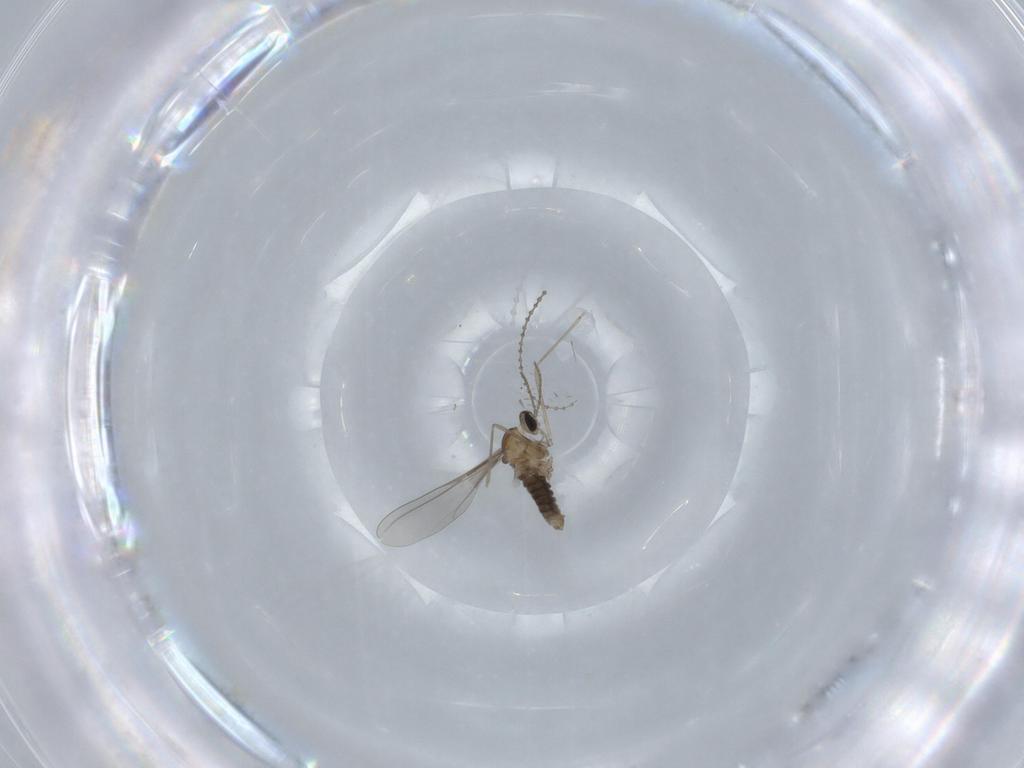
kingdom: Animalia
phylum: Arthropoda
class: Insecta
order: Diptera
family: Cecidomyiidae
